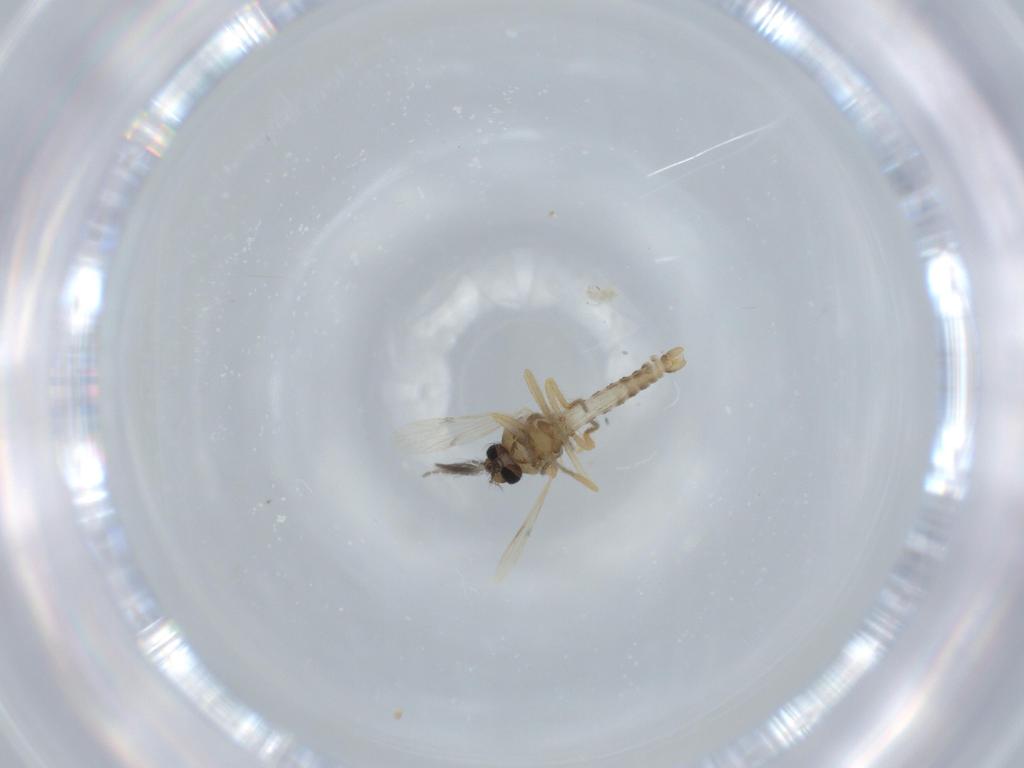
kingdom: Animalia
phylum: Arthropoda
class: Insecta
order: Diptera
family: Ceratopogonidae
